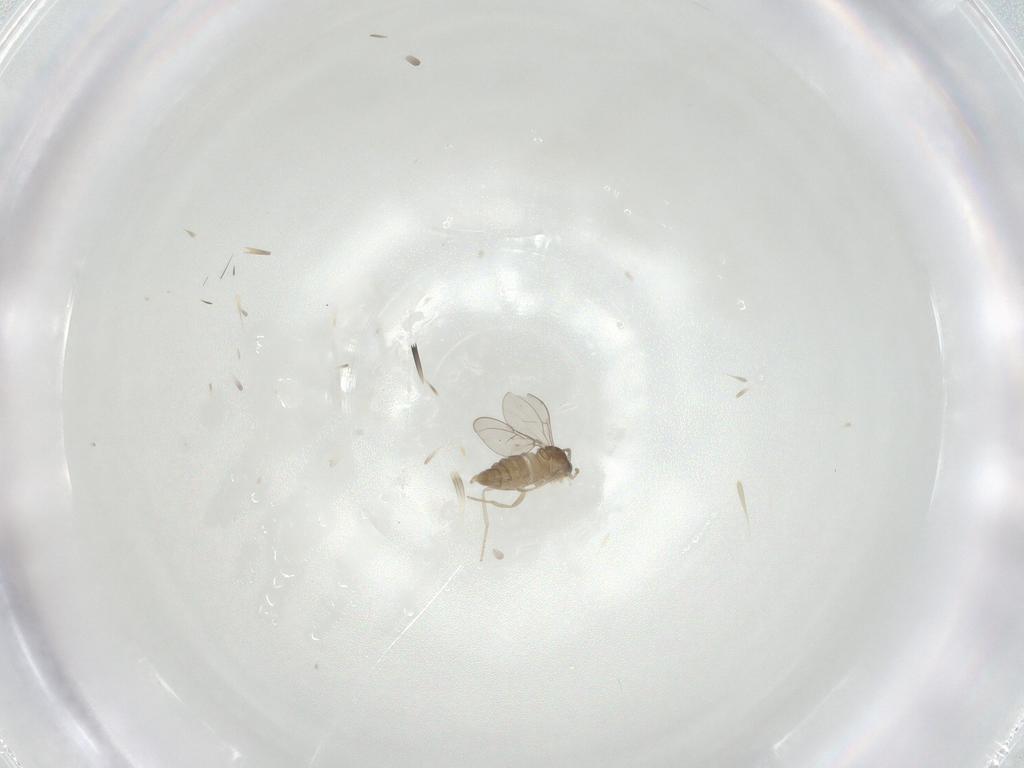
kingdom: Animalia
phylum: Arthropoda
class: Insecta
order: Diptera
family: Cecidomyiidae
